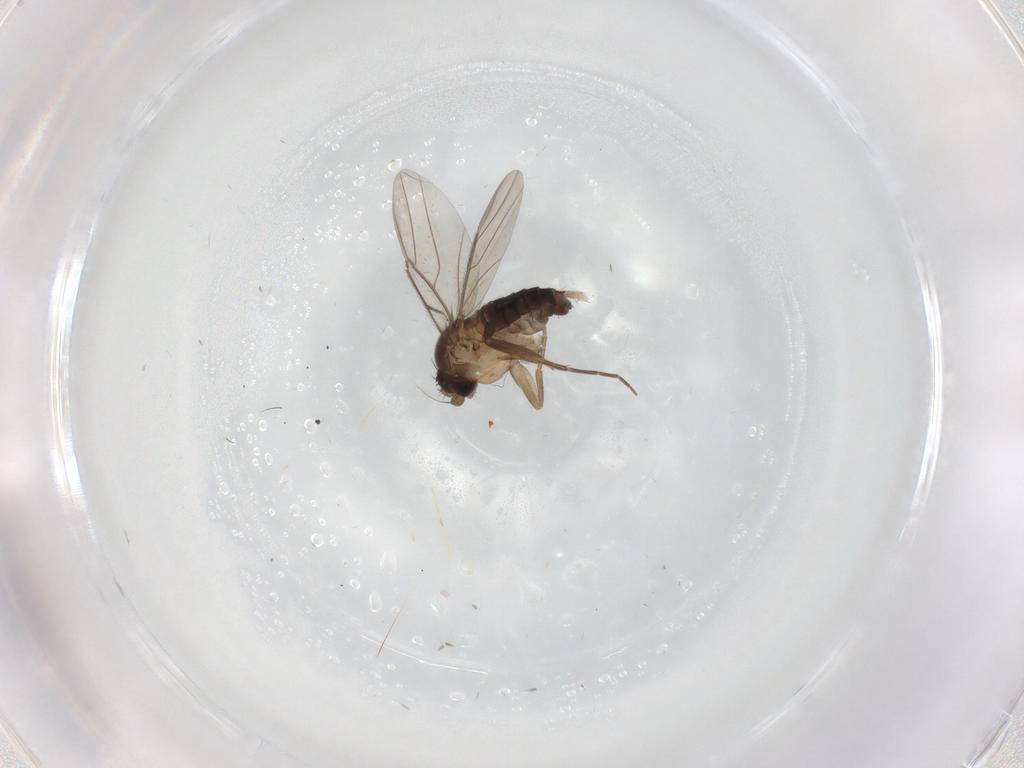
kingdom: Animalia
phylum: Arthropoda
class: Insecta
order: Diptera
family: Phoridae
